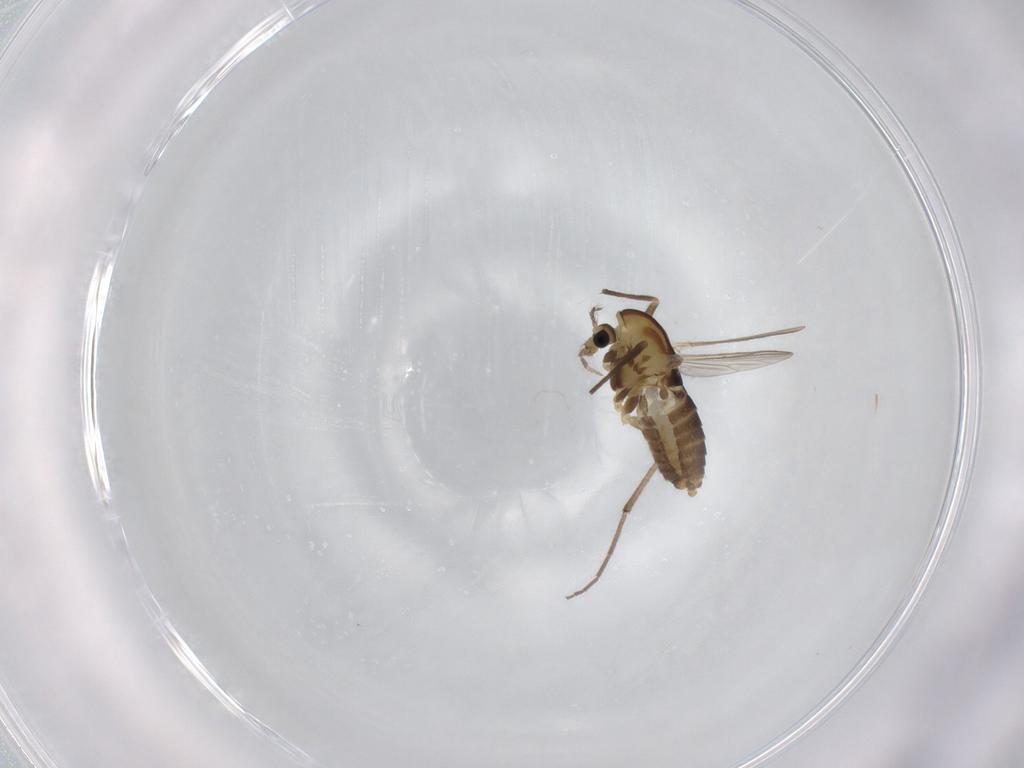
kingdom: Animalia
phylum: Arthropoda
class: Insecta
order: Diptera
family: Chironomidae
